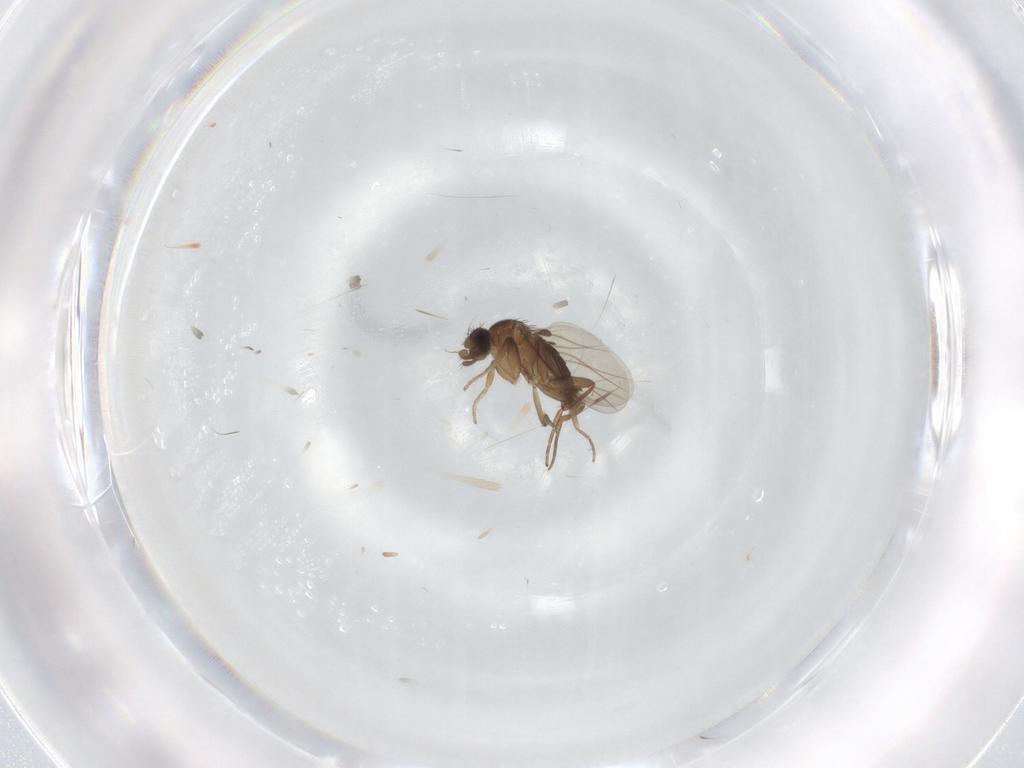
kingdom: Animalia
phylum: Arthropoda
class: Insecta
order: Diptera
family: Phoridae
